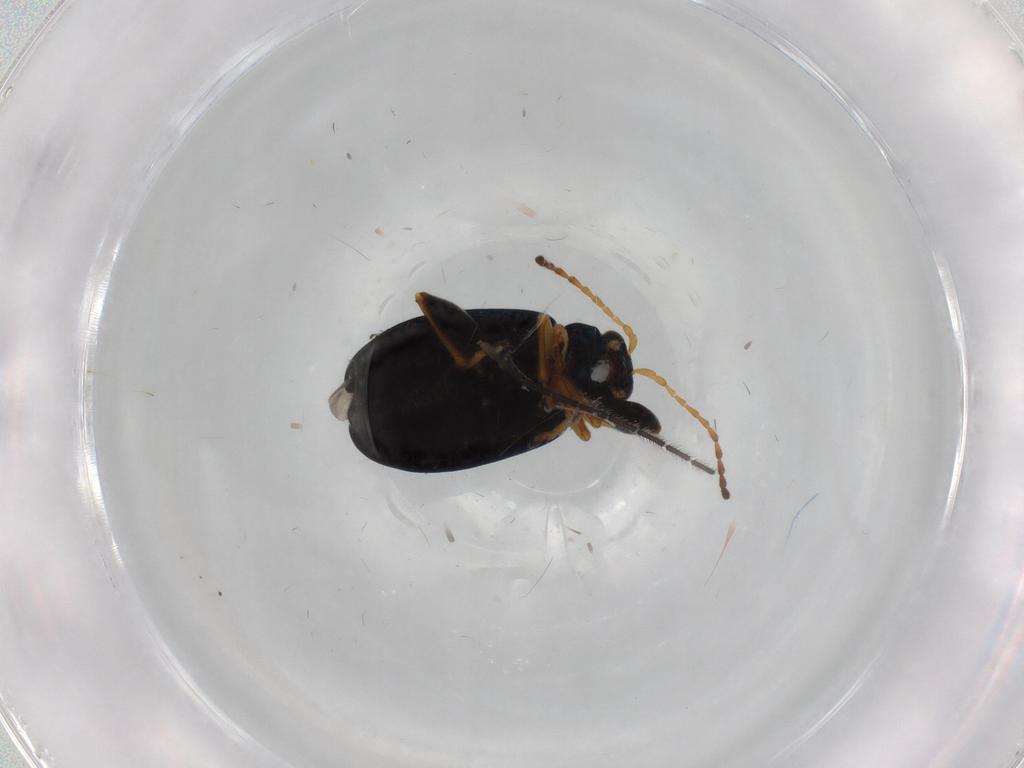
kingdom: Animalia
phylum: Arthropoda
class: Insecta
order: Coleoptera
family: Chrysomelidae
